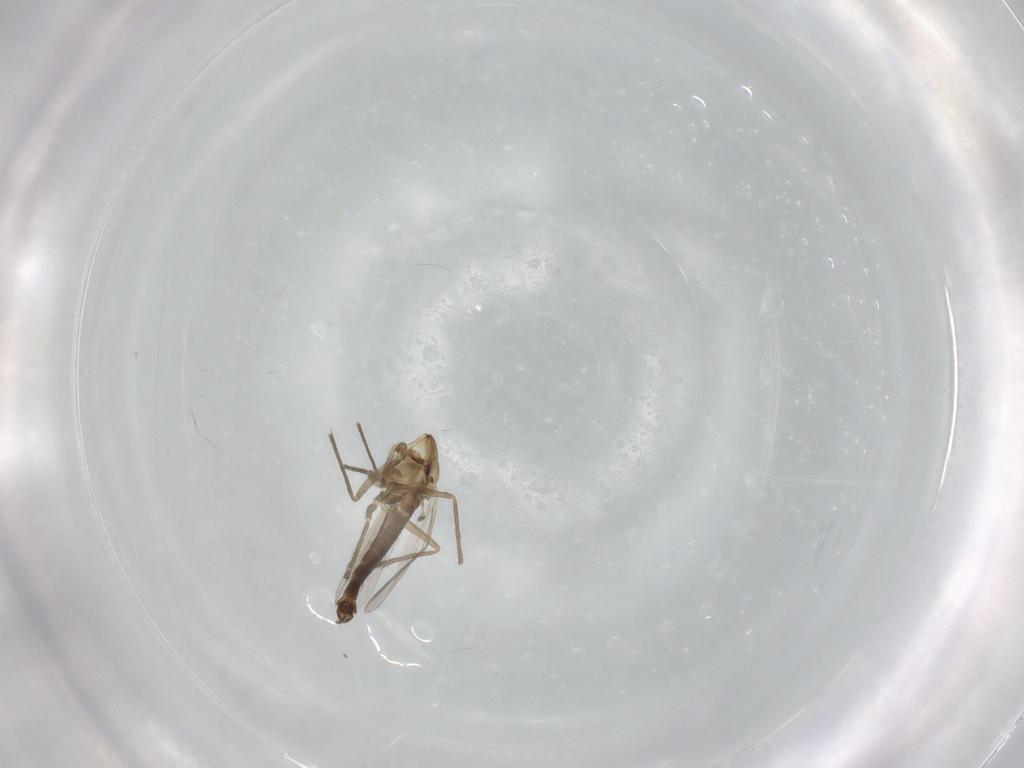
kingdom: Animalia
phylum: Arthropoda
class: Insecta
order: Diptera
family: Chironomidae
